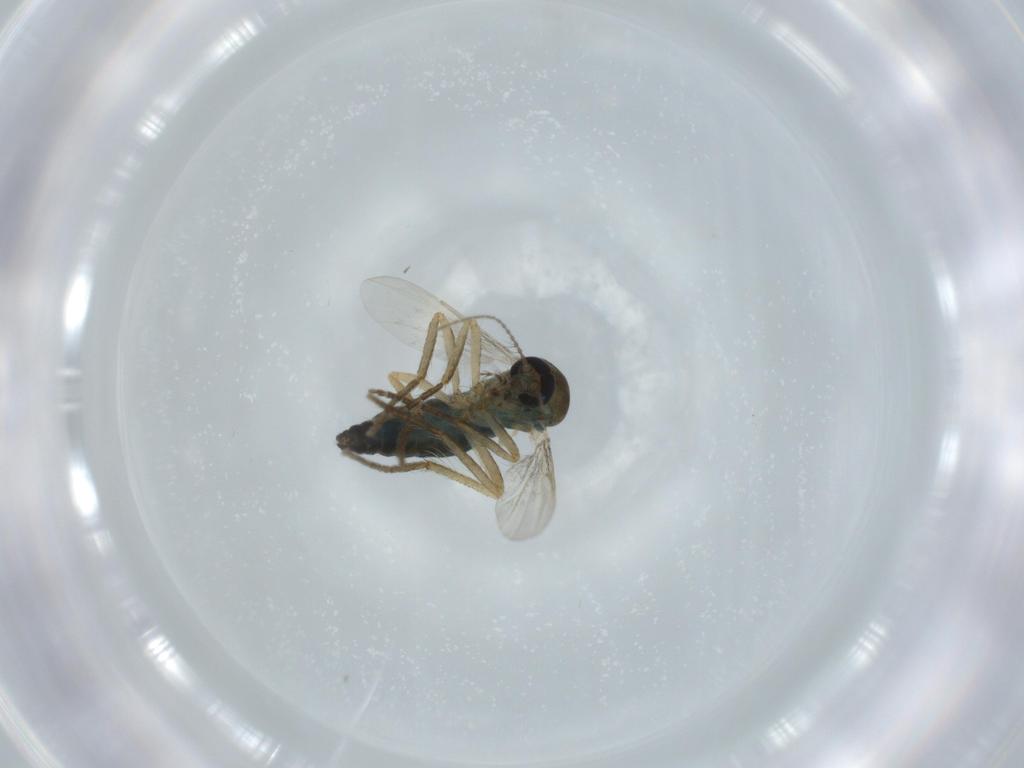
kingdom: Animalia
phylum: Arthropoda
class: Insecta
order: Diptera
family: Ceratopogonidae
